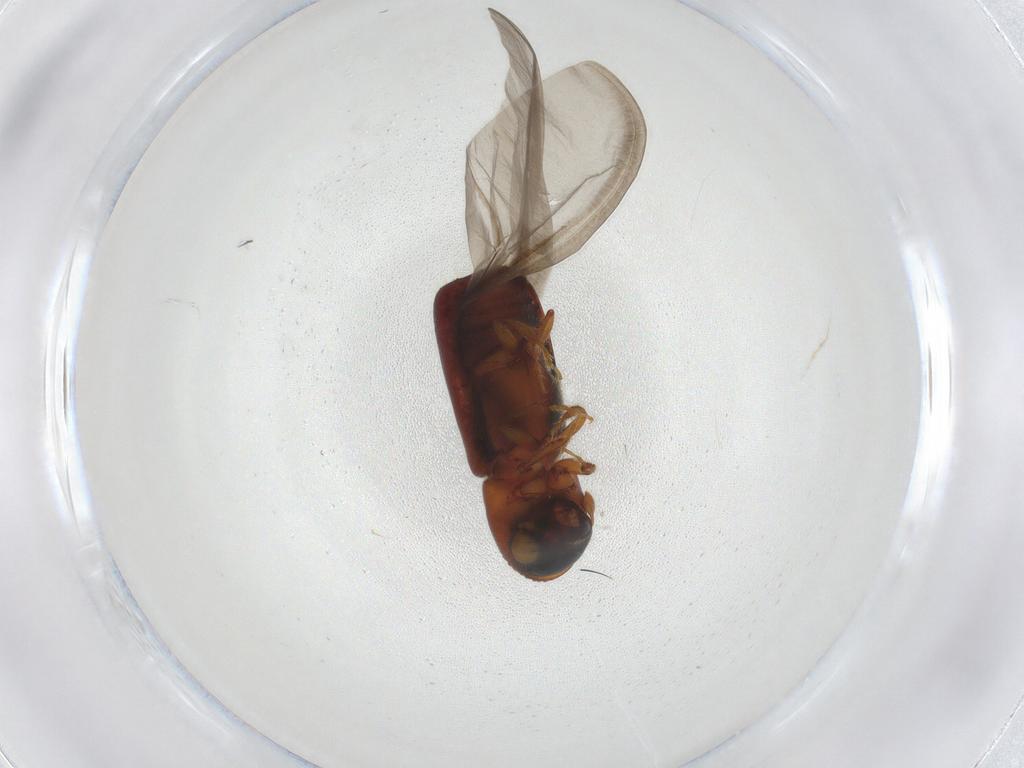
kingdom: Animalia
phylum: Arthropoda
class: Insecta
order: Coleoptera
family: Curculionidae
